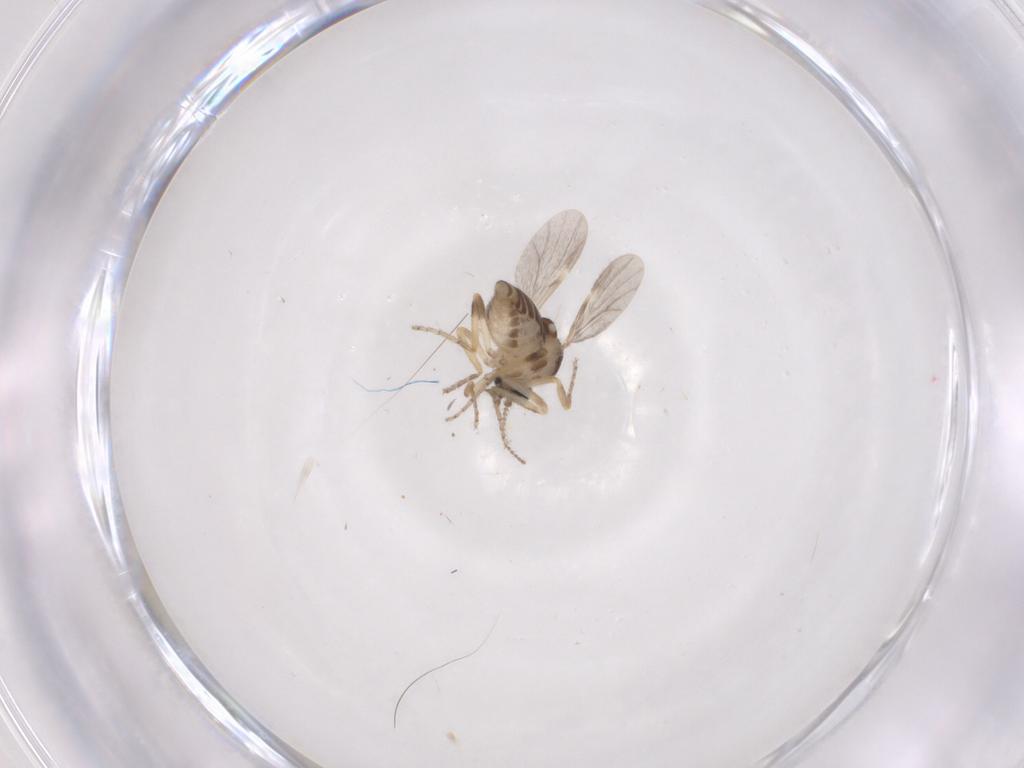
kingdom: Animalia
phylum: Arthropoda
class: Insecta
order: Diptera
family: Ceratopogonidae
